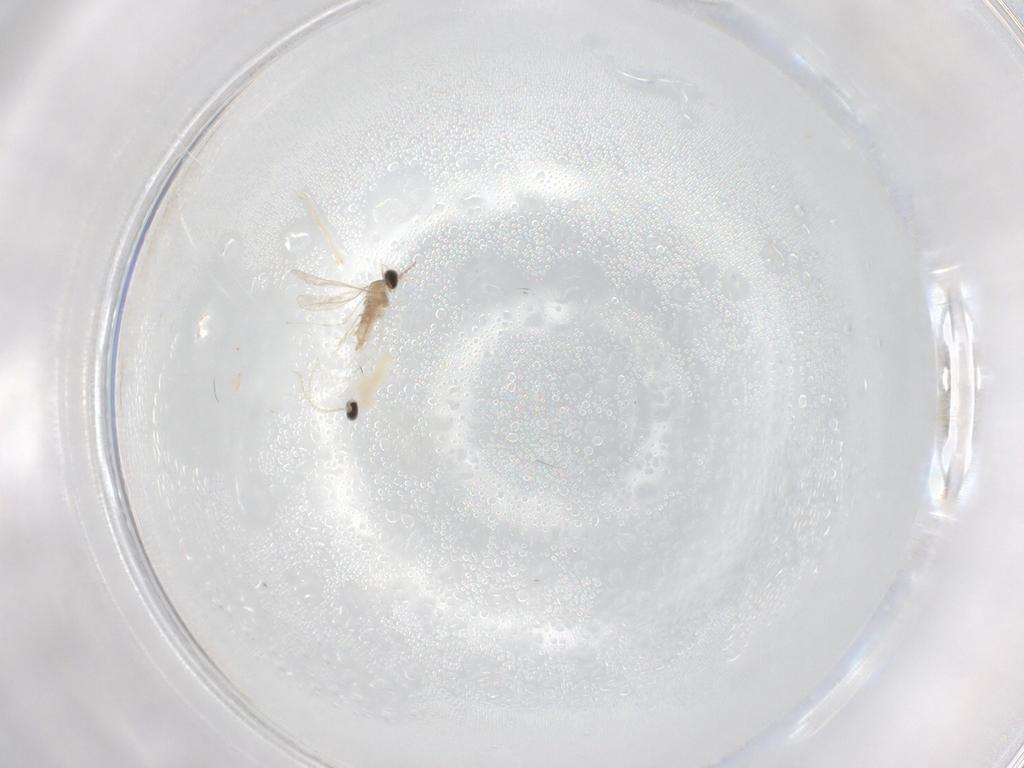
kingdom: Animalia
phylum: Arthropoda
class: Insecta
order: Diptera
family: Cecidomyiidae
